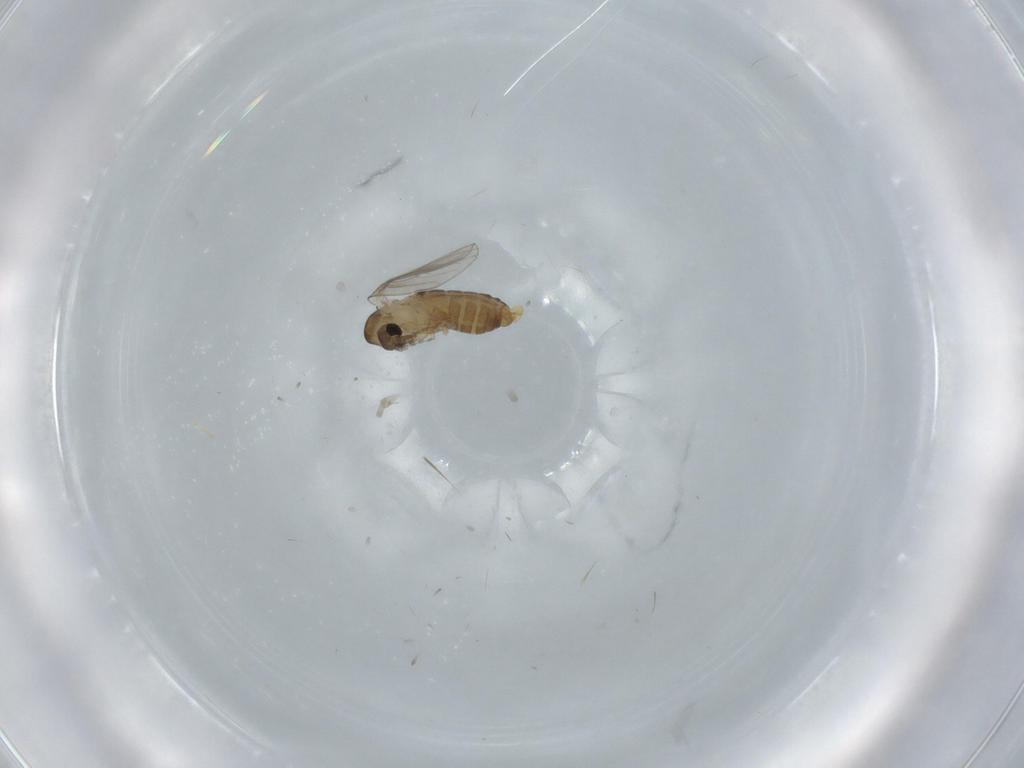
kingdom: Animalia
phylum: Arthropoda
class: Insecta
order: Diptera
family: Psychodidae
